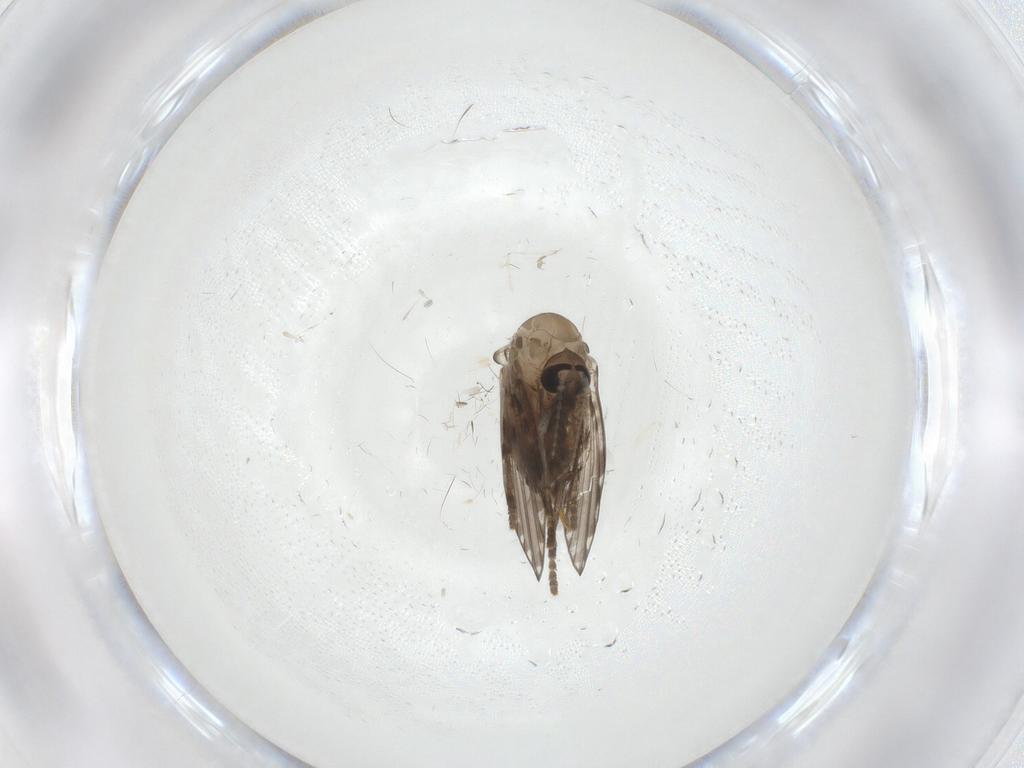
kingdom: Animalia
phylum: Arthropoda
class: Insecta
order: Diptera
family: Psychodidae
